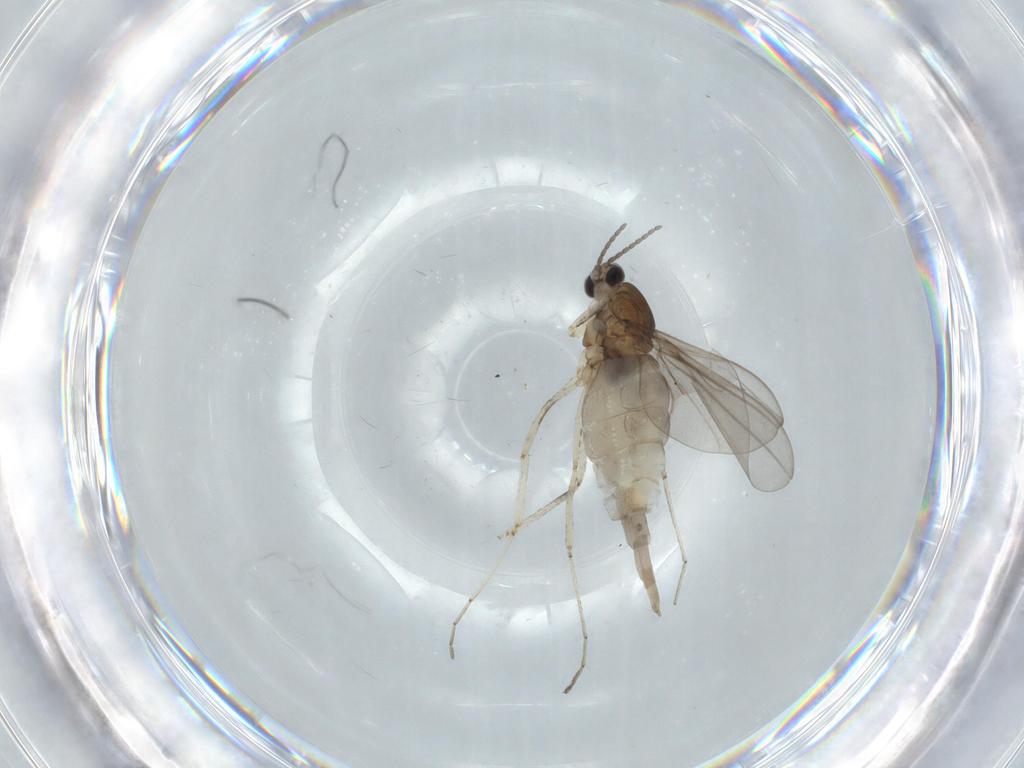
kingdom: Animalia
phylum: Arthropoda
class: Insecta
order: Diptera
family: Cecidomyiidae
